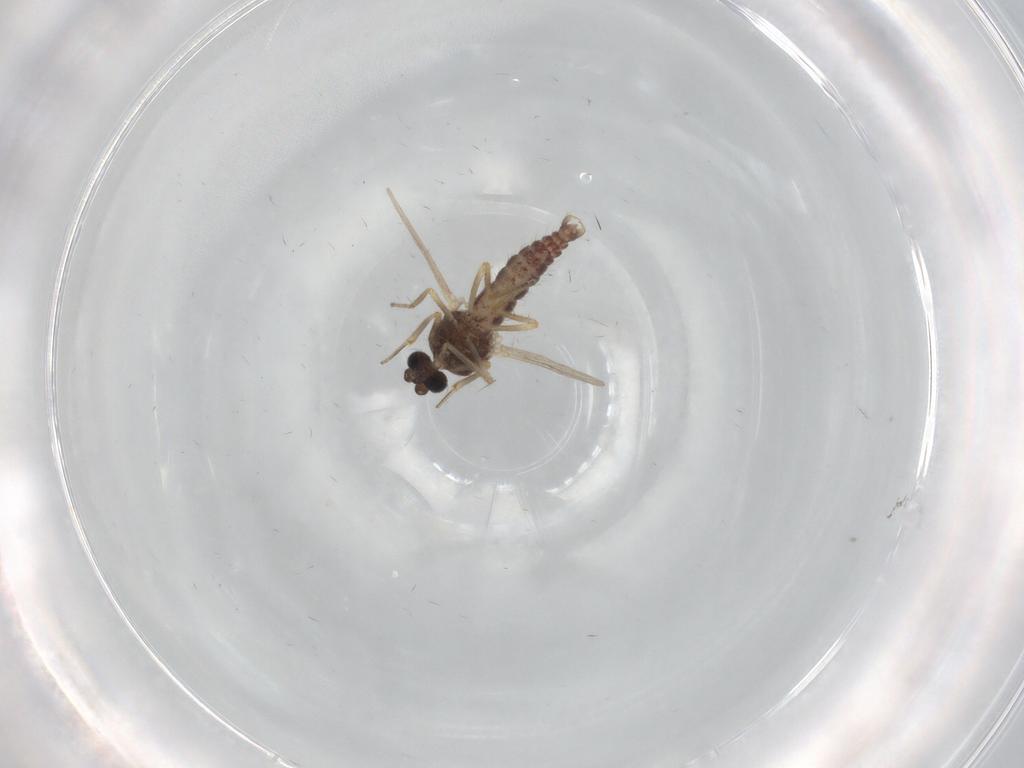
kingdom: Animalia
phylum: Arthropoda
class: Insecta
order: Diptera
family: Ceratopogonidae
